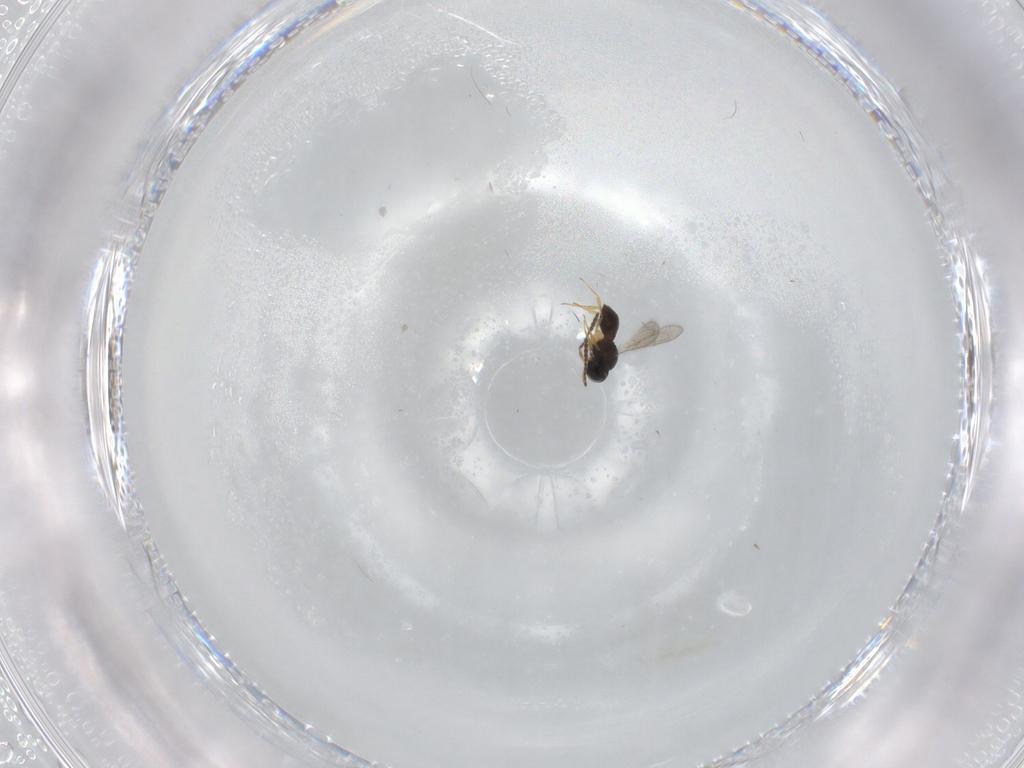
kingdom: Animalia
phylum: Arthropoda
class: Insecta
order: Hymenoptera
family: Scelionidae
